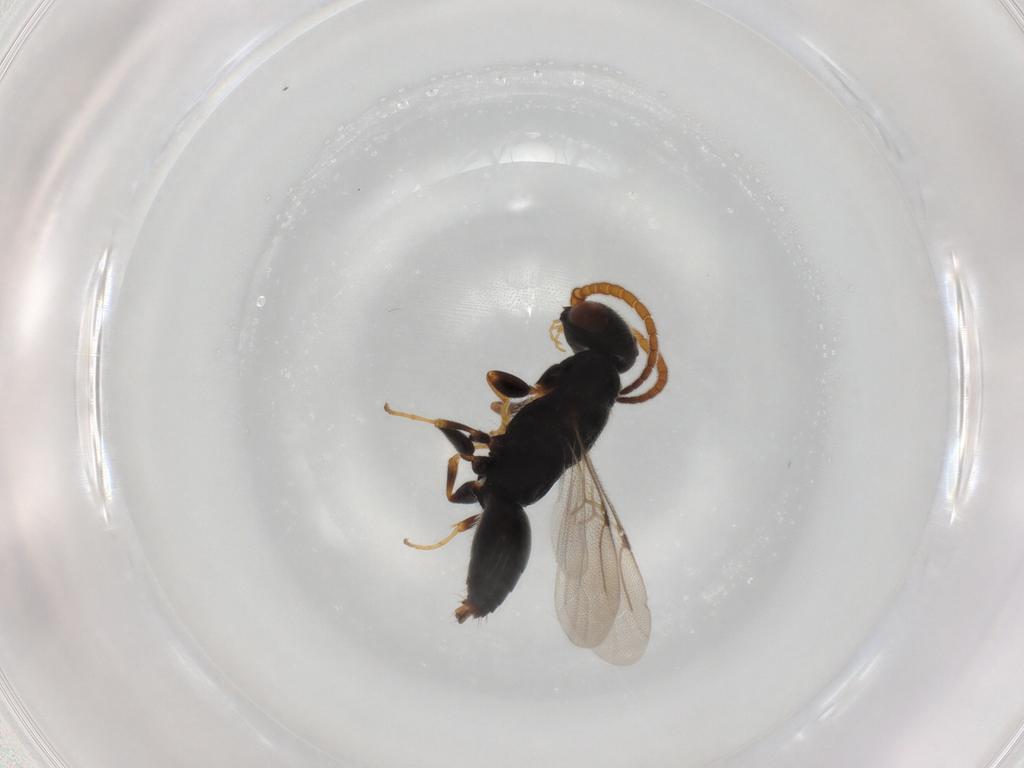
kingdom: Animalia
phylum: Arthropoda
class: Insecta
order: Hymenoptera
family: Bethylidae
